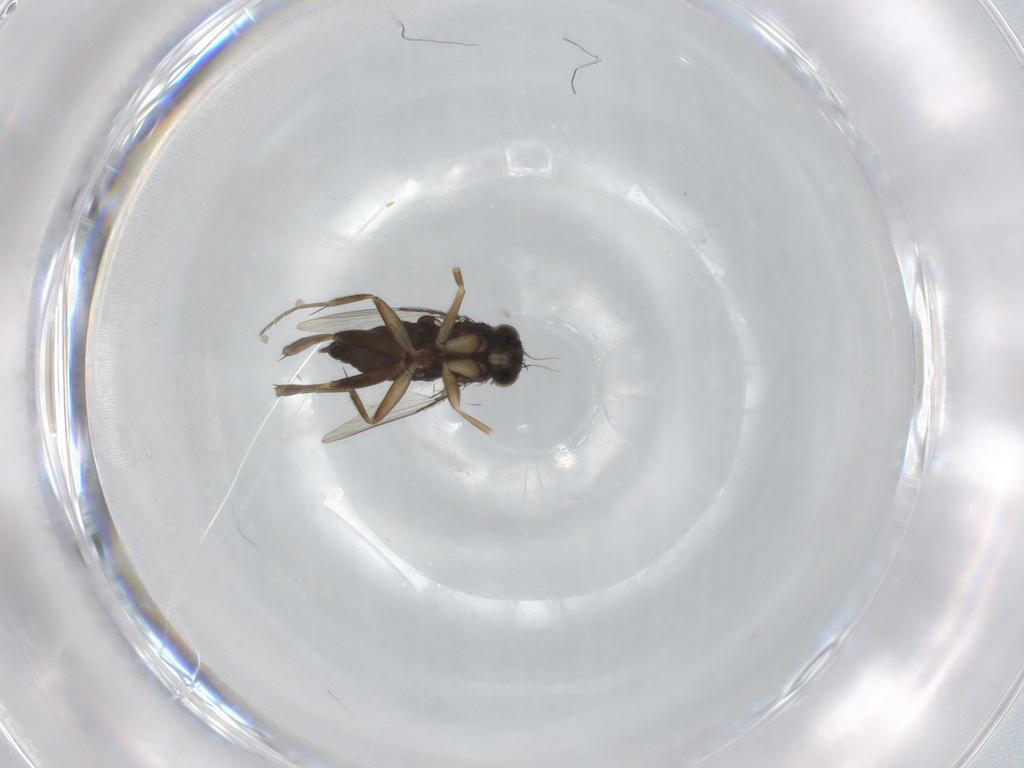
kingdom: Animalia
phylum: Arthropoda
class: Insecta
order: Diptera
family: Phoridae
